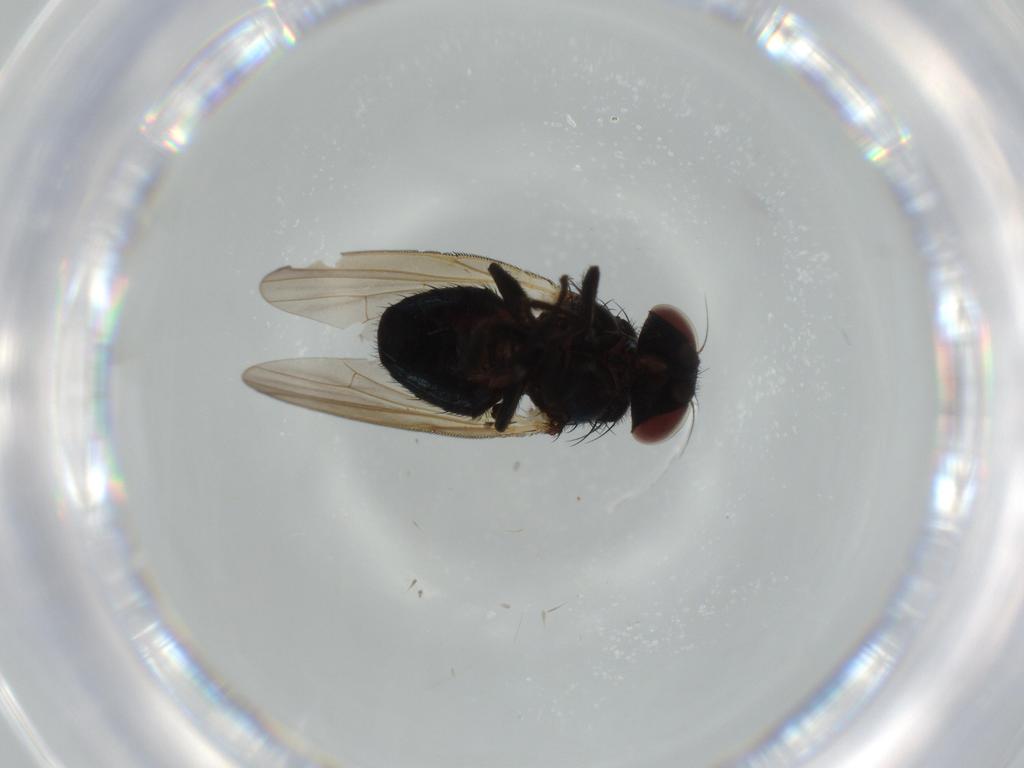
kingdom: Animalia
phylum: Arthropoda
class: Insecta
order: Diptera
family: Lonchaeidae
